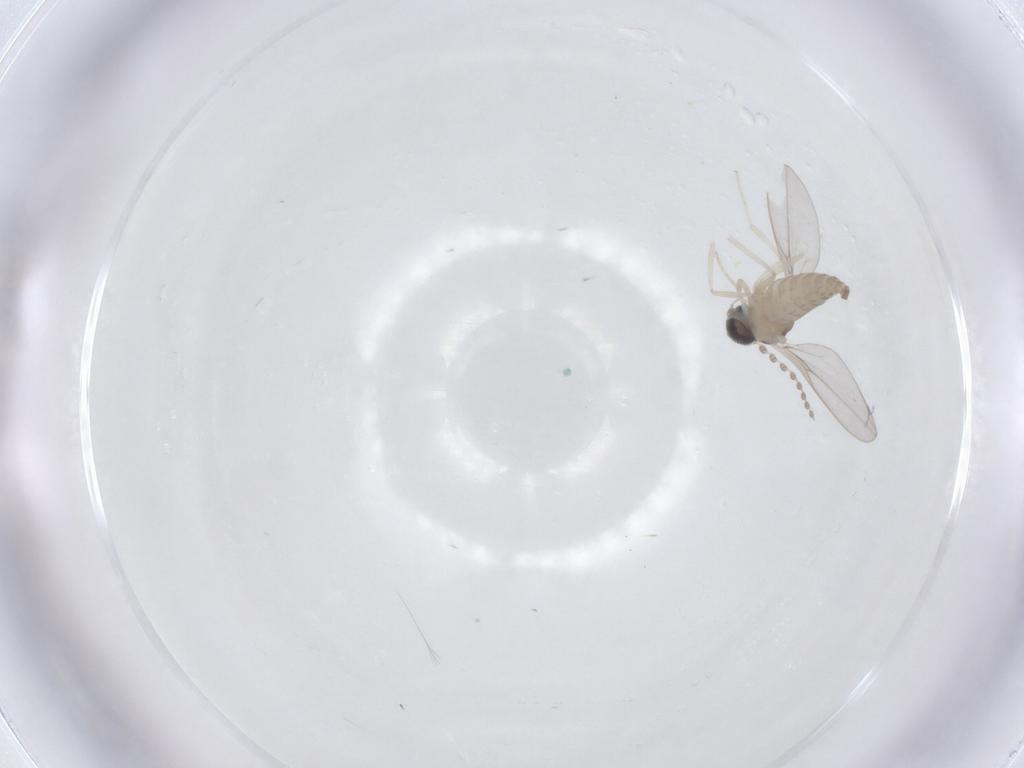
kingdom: Animalia
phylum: Arthropoda
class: Insecta
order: Diptera
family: Cecidomyiidae
